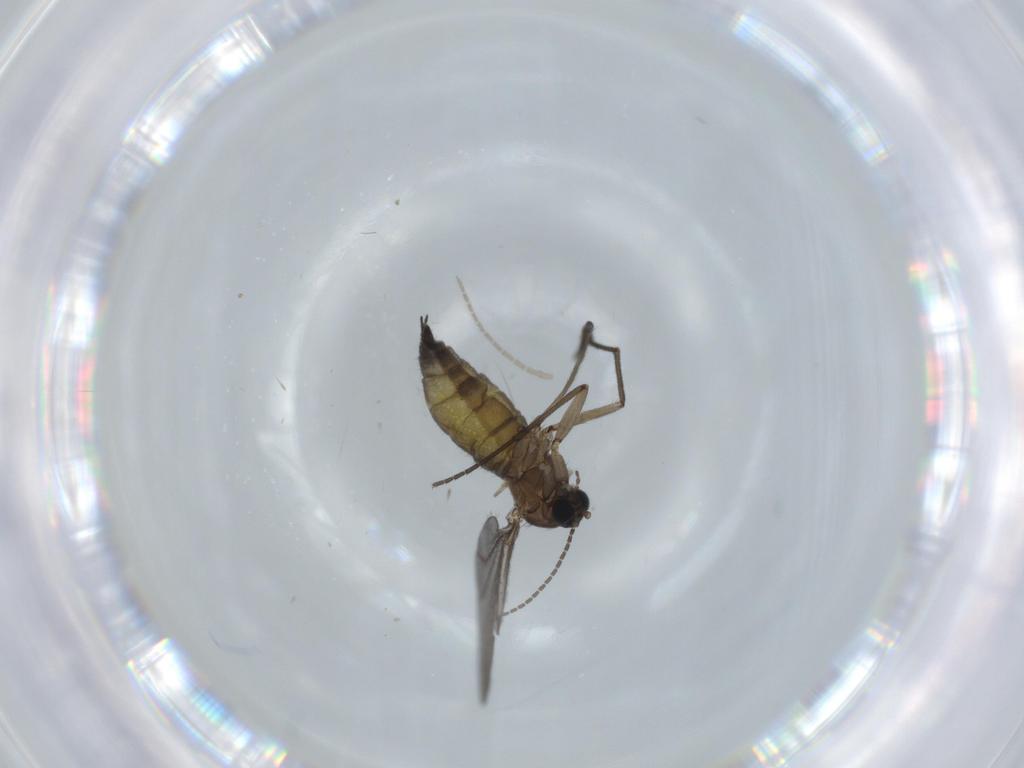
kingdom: Animalia
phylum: Arthropoda
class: Insecta
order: Diptera
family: Sciaridae
